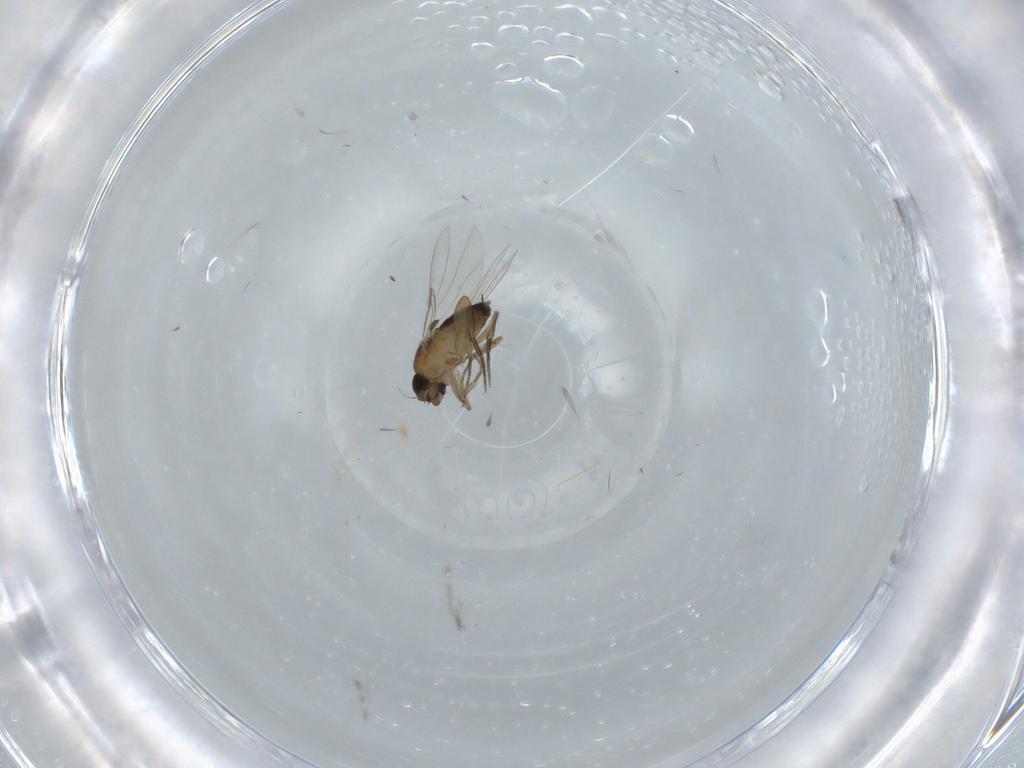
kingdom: Animalia
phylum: Arthropoda
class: Insecta
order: Diptera
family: Phoridae
